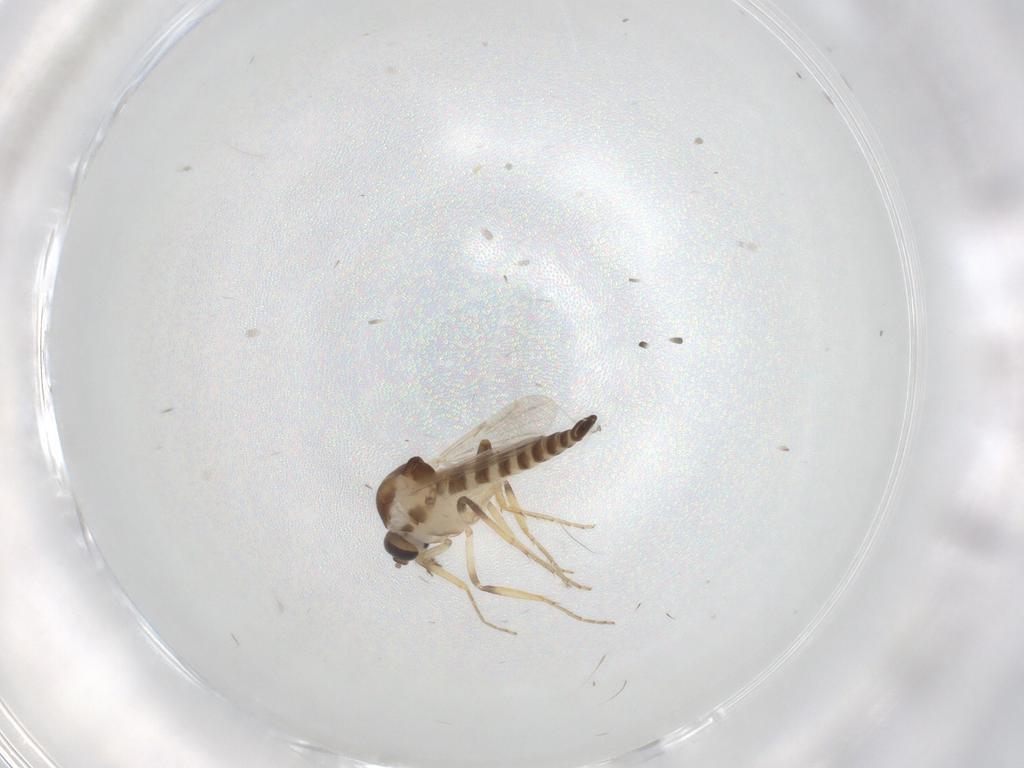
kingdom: Animalia
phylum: Arthropoda
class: Insecta
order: Diptera
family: Ceratopogonidae
